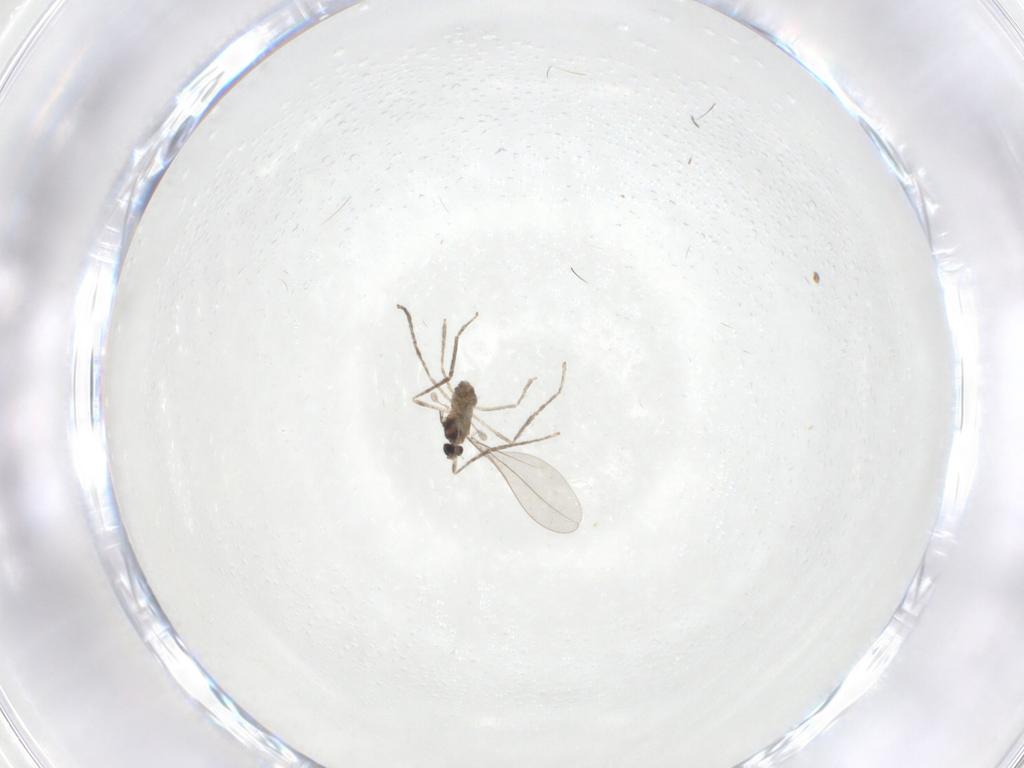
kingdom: Animalia
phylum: Arthropoda
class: Insecta
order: Diptera
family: Cecidomyiidae
